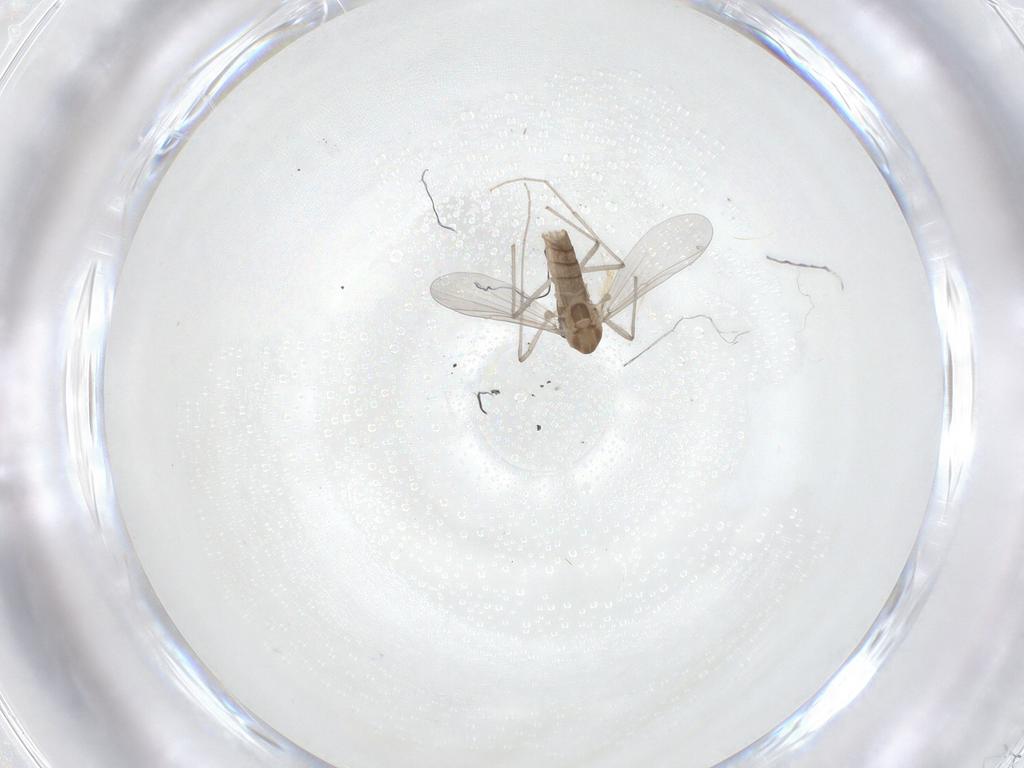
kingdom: Animalia
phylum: Arthropoda
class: Insecta
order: Diptera
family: Chironomidae
